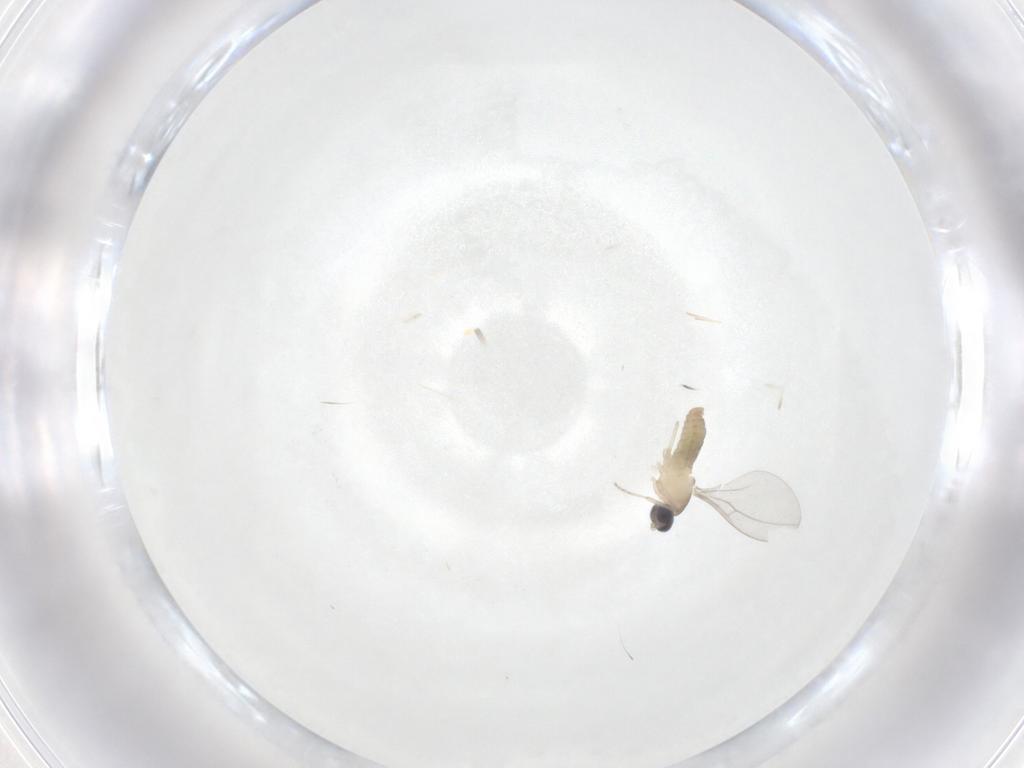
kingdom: Animalia
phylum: Arthropoda
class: Insecta
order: Diptera
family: Cecidomyiidae
